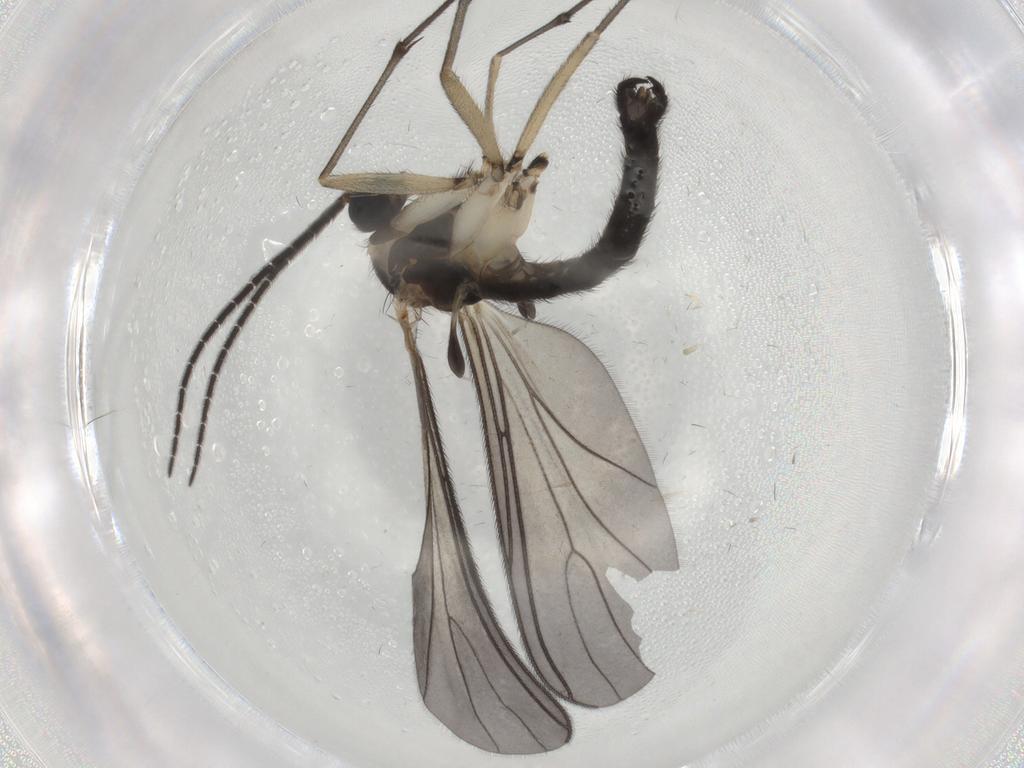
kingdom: Animalia
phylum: Arthropoda
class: Insecta
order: Diptera
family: Sciaridae
